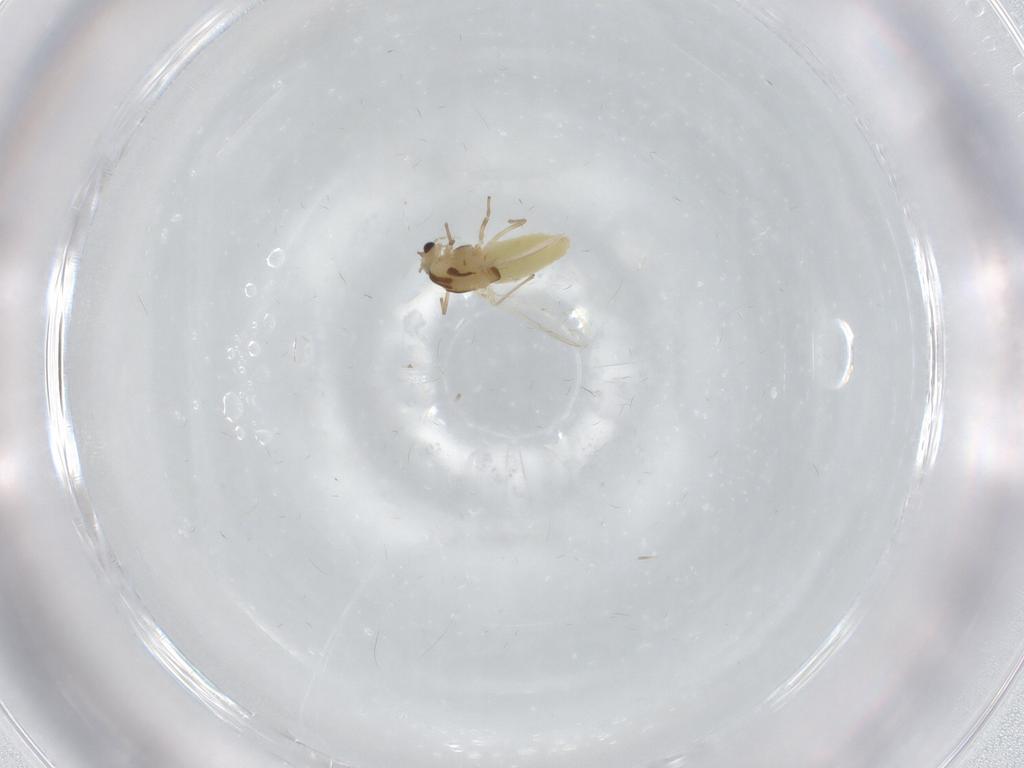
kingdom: Animalia
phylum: Arthropoda
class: Insecta
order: Diptera
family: Chironomidae
